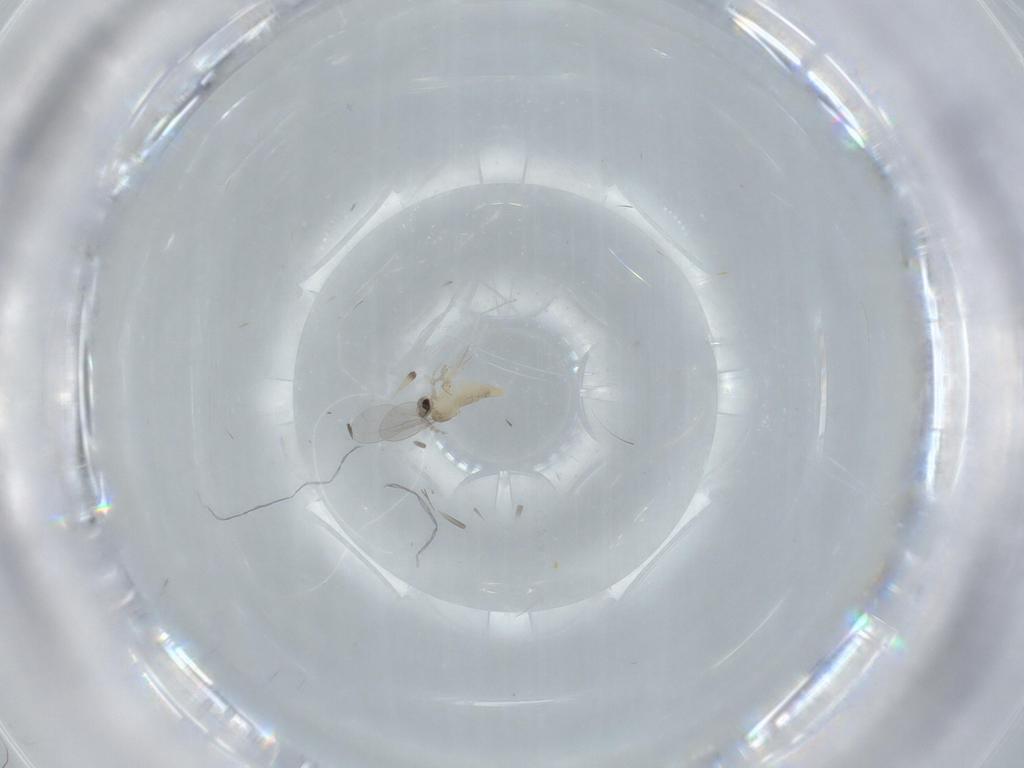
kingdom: Animalia
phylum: Arthropoda
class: Insecta
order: Diptera
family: Cecidomyiidae
